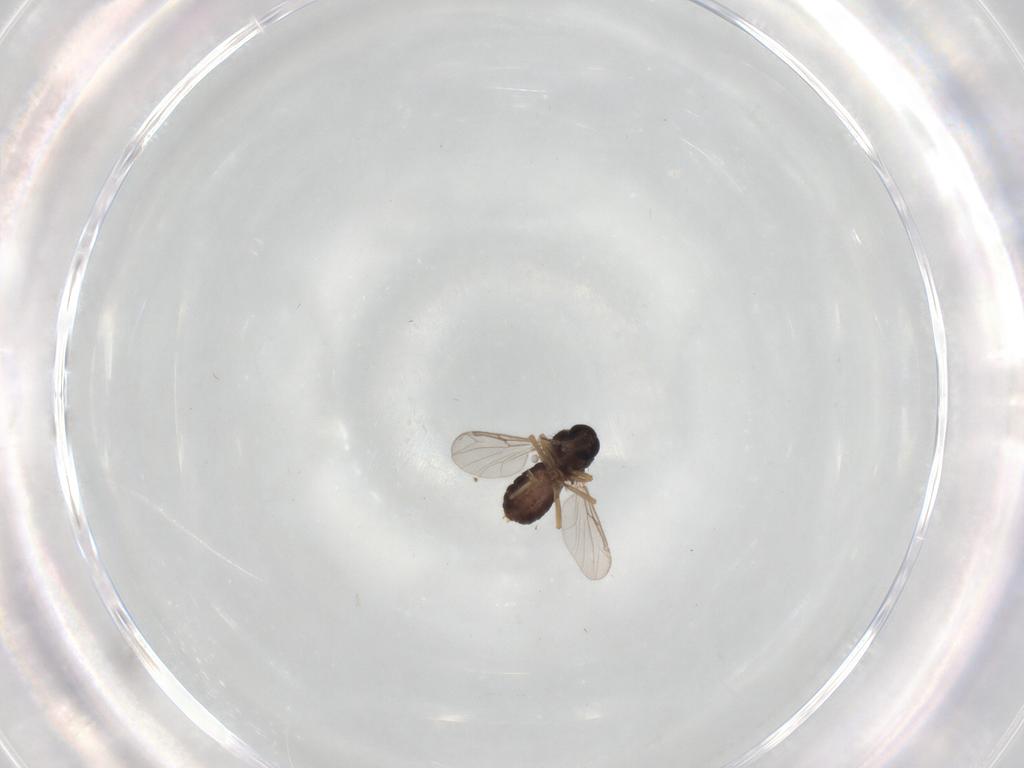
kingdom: Animalia
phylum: Arthropoda
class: Insecta
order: Diptera
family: Ceratopogonidae
